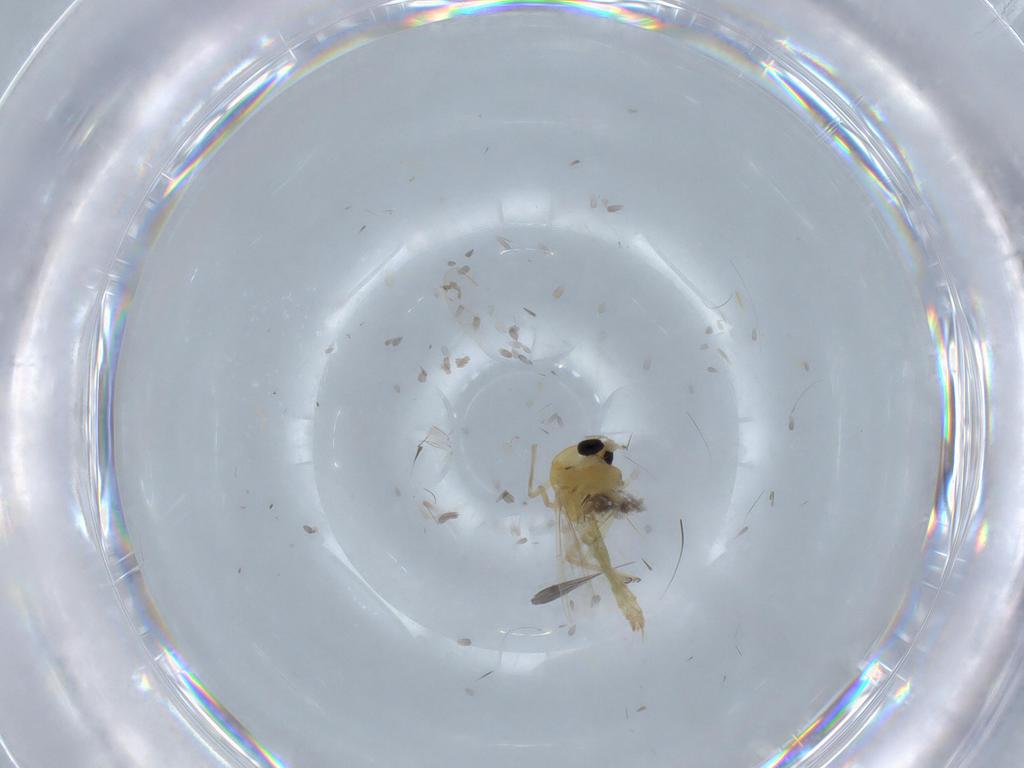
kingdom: Animalia
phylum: Arthropoda
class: Insecta
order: Diptera
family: Chironomidae
